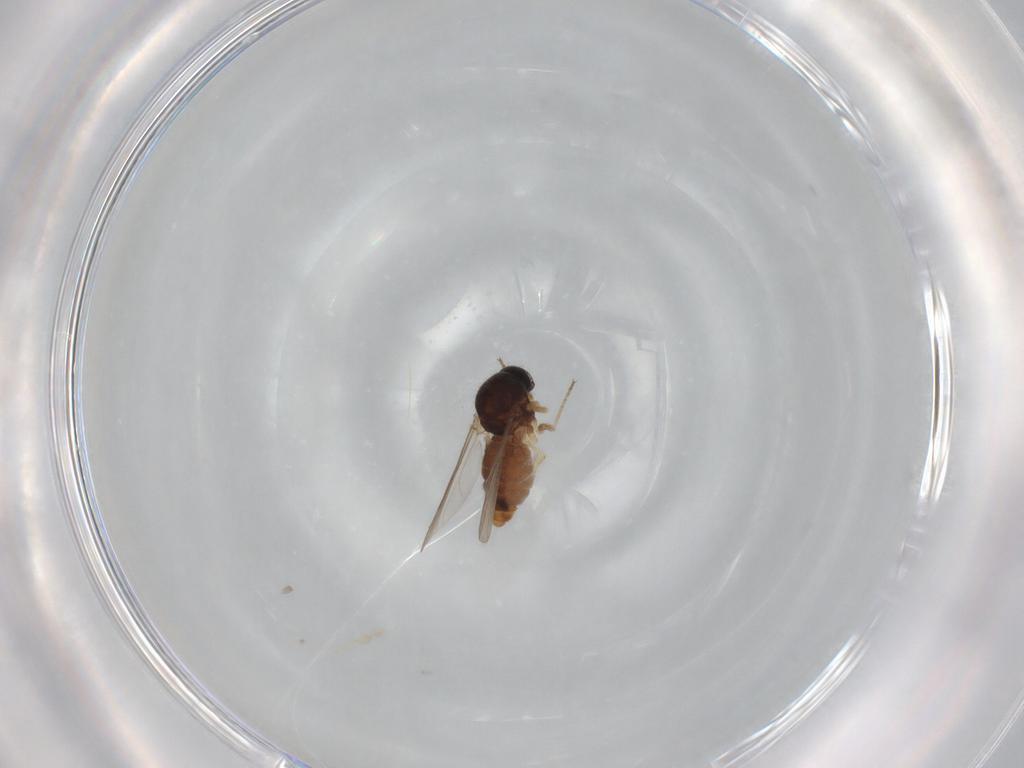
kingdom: Animalia
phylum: Arthropoda
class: Insecta
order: Diptera
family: Ceratopogonidae
